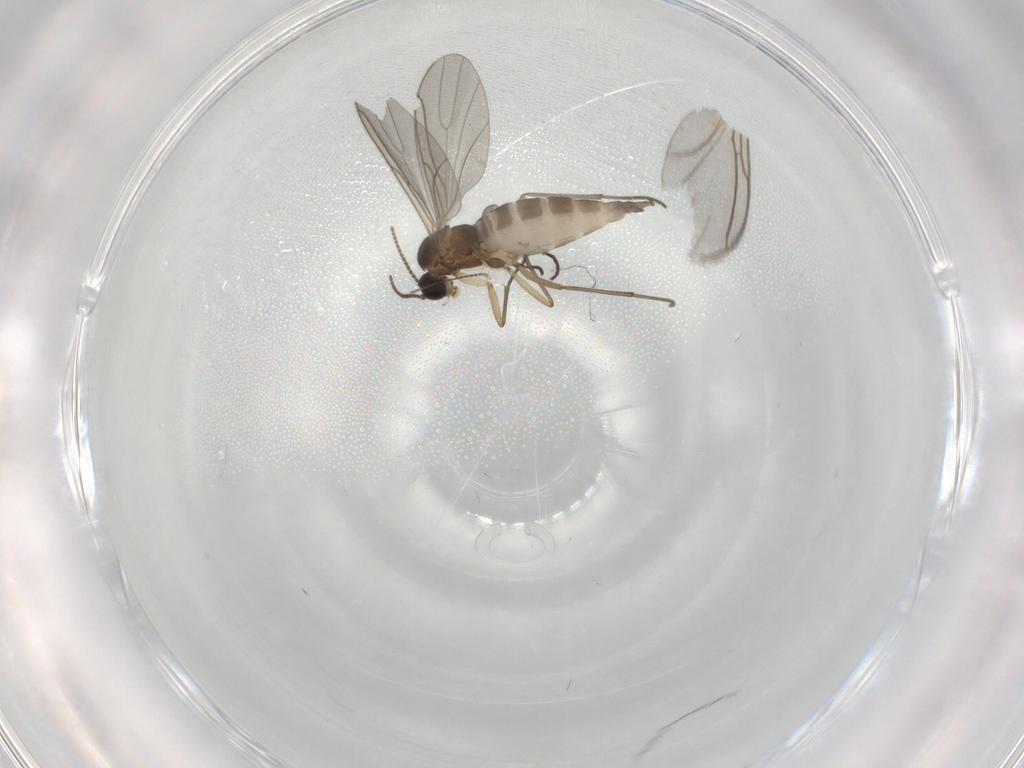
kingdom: Animalia
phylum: Arthropoda
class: Insecta
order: Diptera
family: Sciaridae
